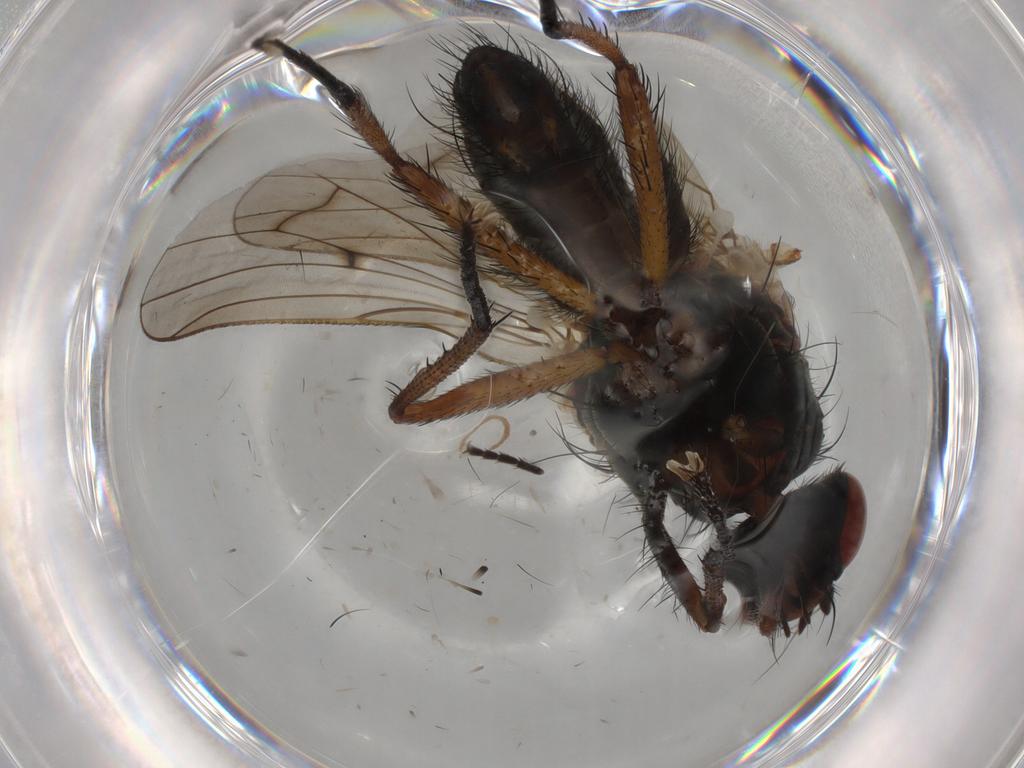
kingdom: Animalia
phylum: Arthropoda
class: Insecta
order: Diptera
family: Anthomyiidae
